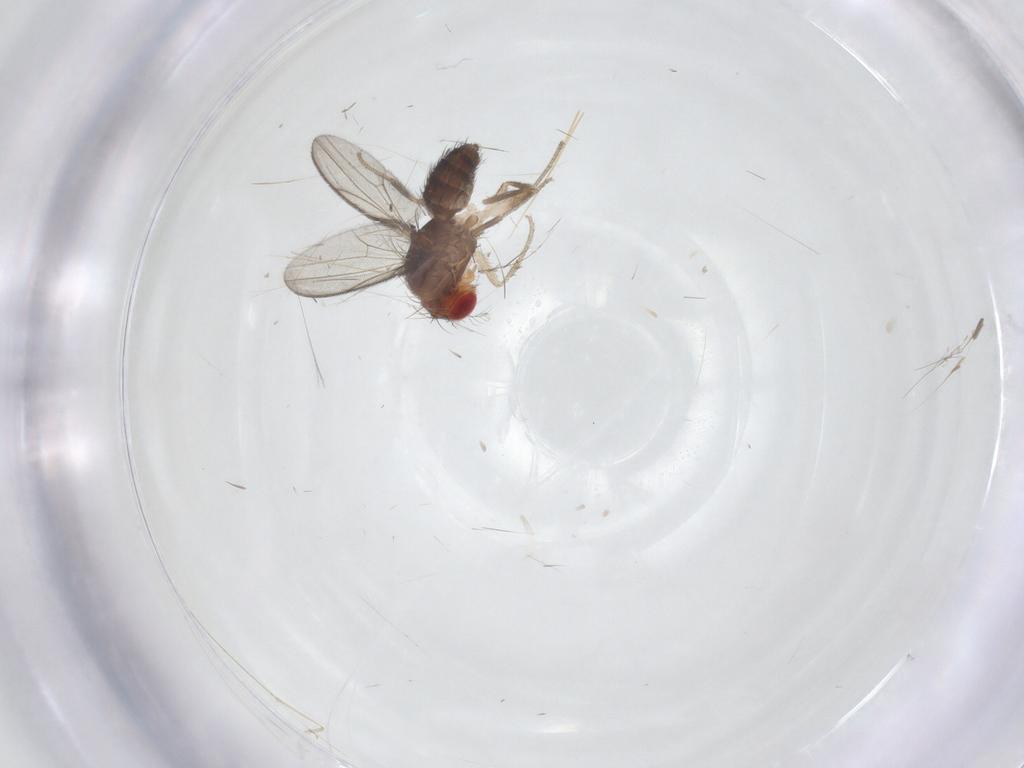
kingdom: Animalia
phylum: Arthropoda
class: Insecta
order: Diptera
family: Drosophilidae
